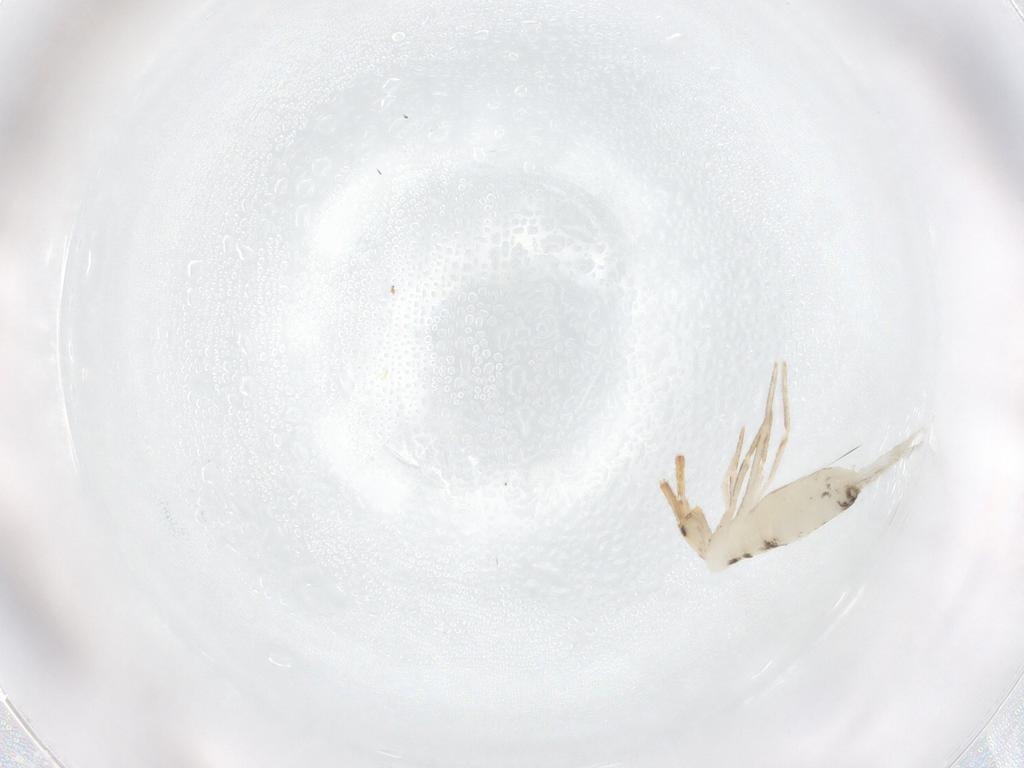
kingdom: Animalia
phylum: Arthropoda
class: Collembola
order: Entomobryomorpha
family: Entomobryidae
